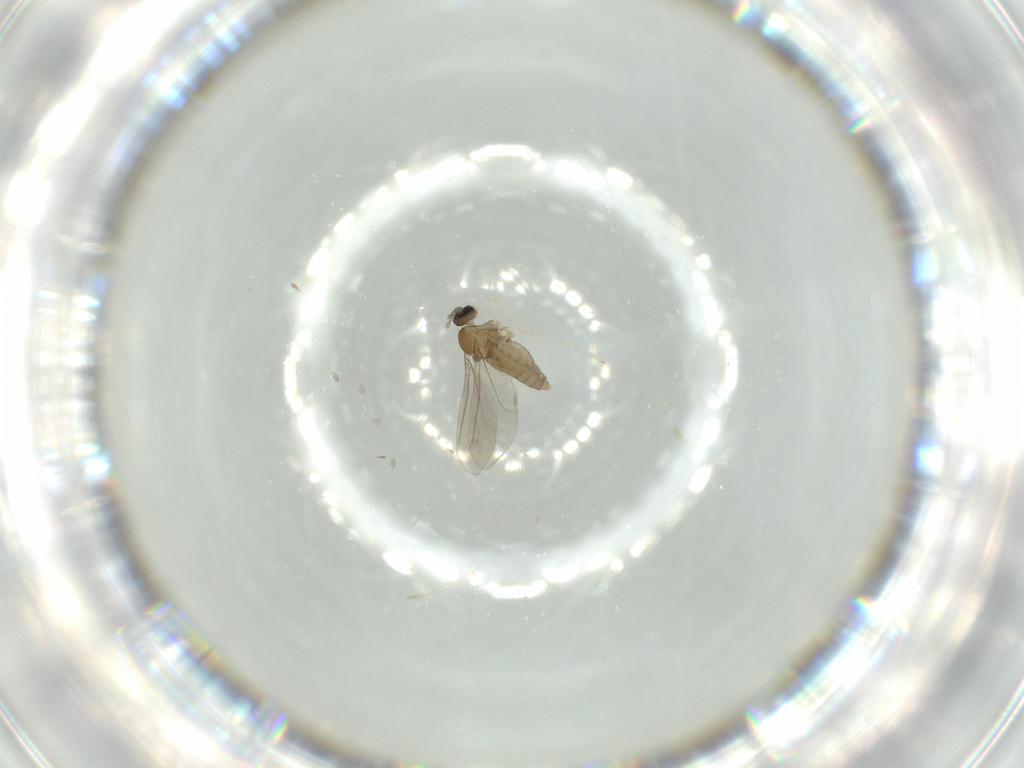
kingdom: Animalia
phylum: Arthropoda
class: Insecta
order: Diptera
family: Cecidomyiidae
